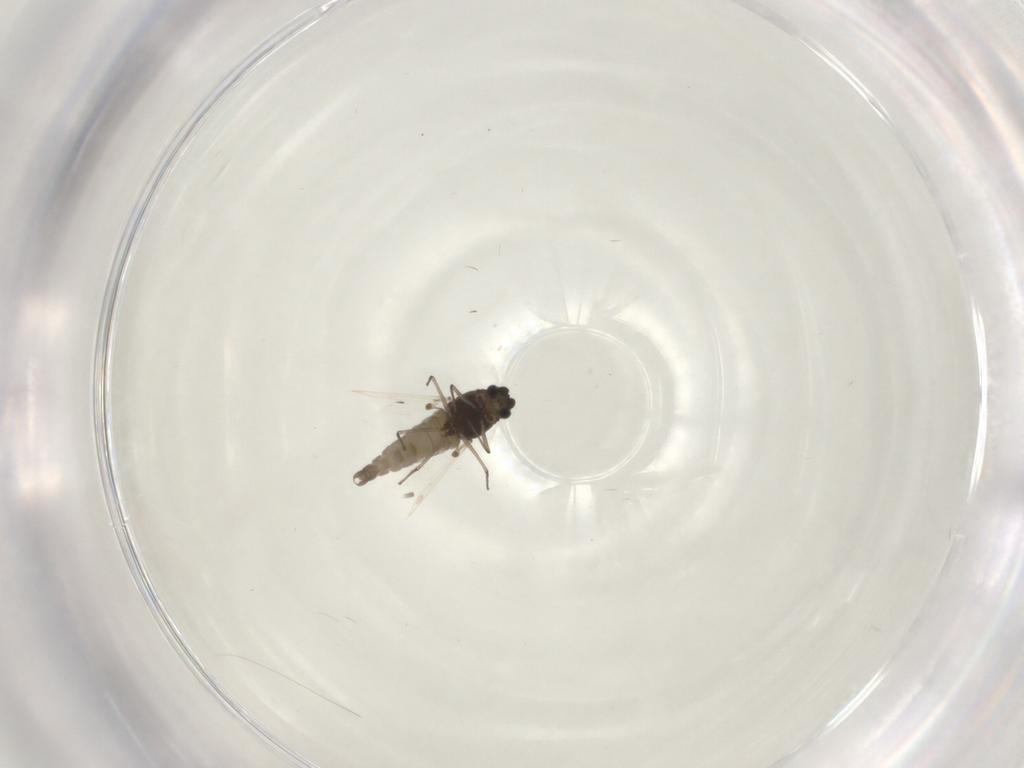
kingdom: Animalia
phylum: Arthropoda
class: Insecta
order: Diptera
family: Chironomidae
